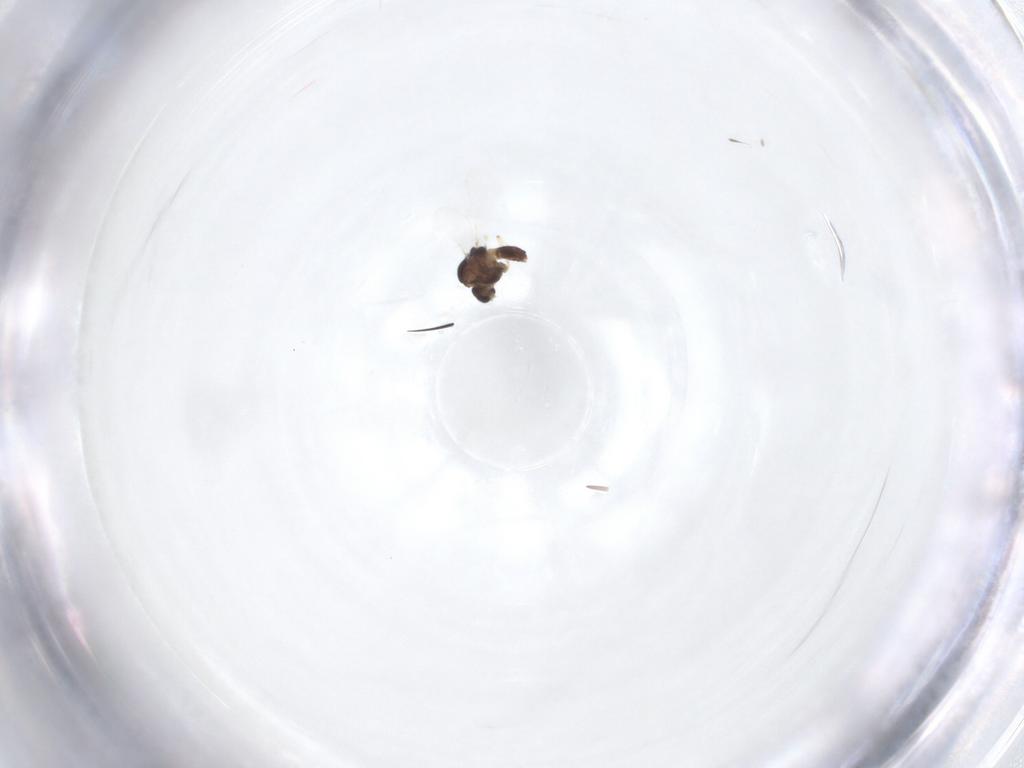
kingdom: Animalia
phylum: Arthropoda
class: Insecta
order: Diptera
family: Chironomidae
